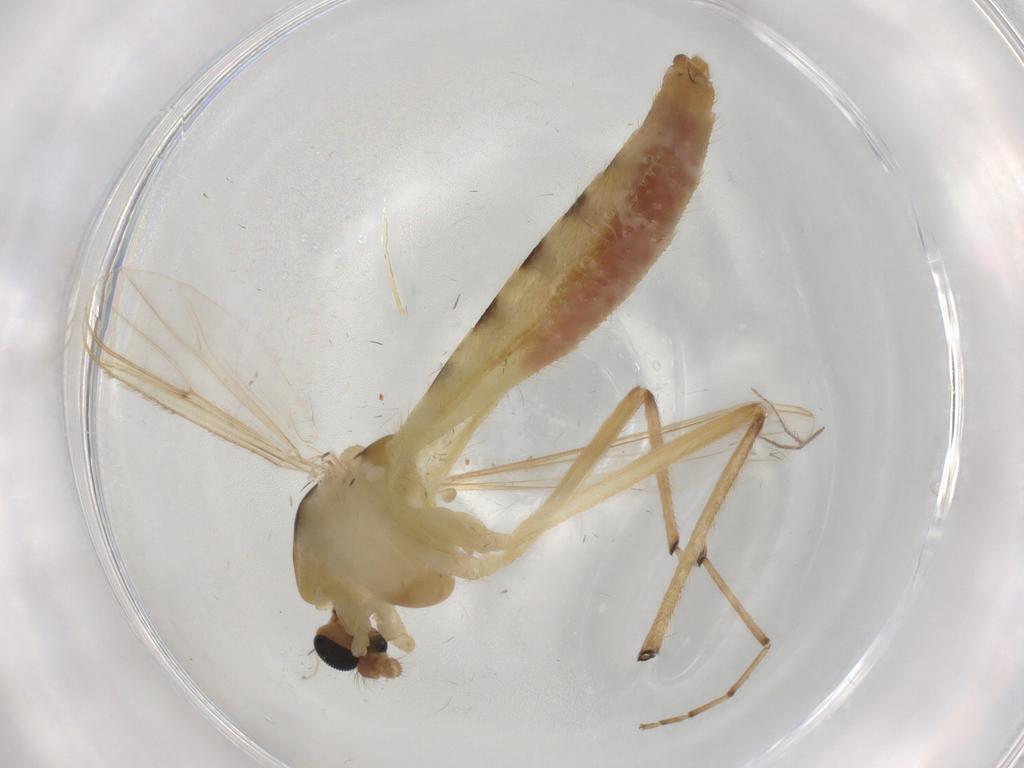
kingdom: Animalia
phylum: Arthropoda
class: Insecta
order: Diptera
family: Chironomidae
